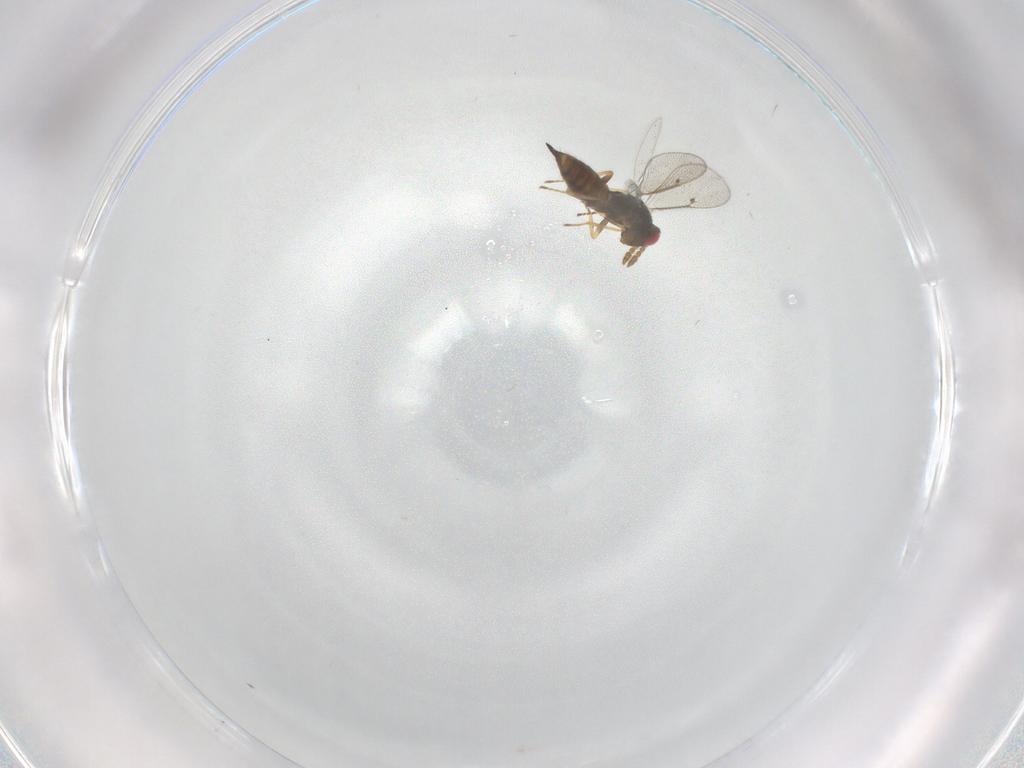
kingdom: Animalia
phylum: Arthropoda
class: Insecta
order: Hymenoptera
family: Eulophidae
